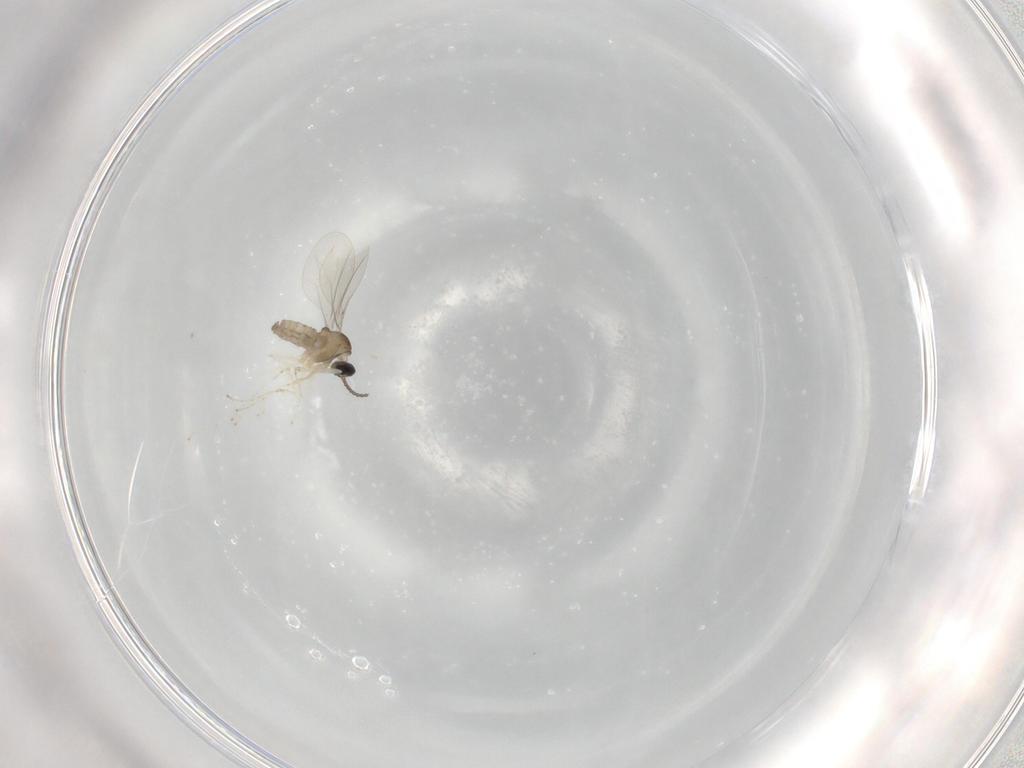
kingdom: Animalia
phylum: Arthropoda
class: Insecta
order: Diptera
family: Cecidomyiidae
